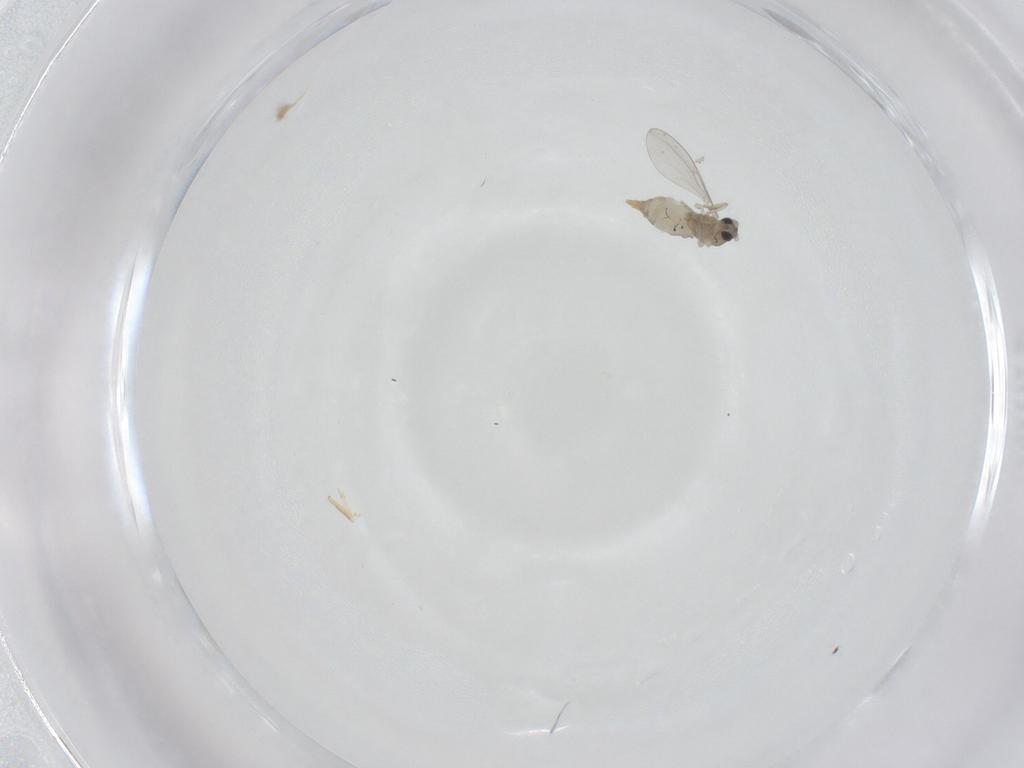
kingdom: Animalia
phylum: Arthropoda
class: Insecta
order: Diptera
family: Cecidomyiidae
